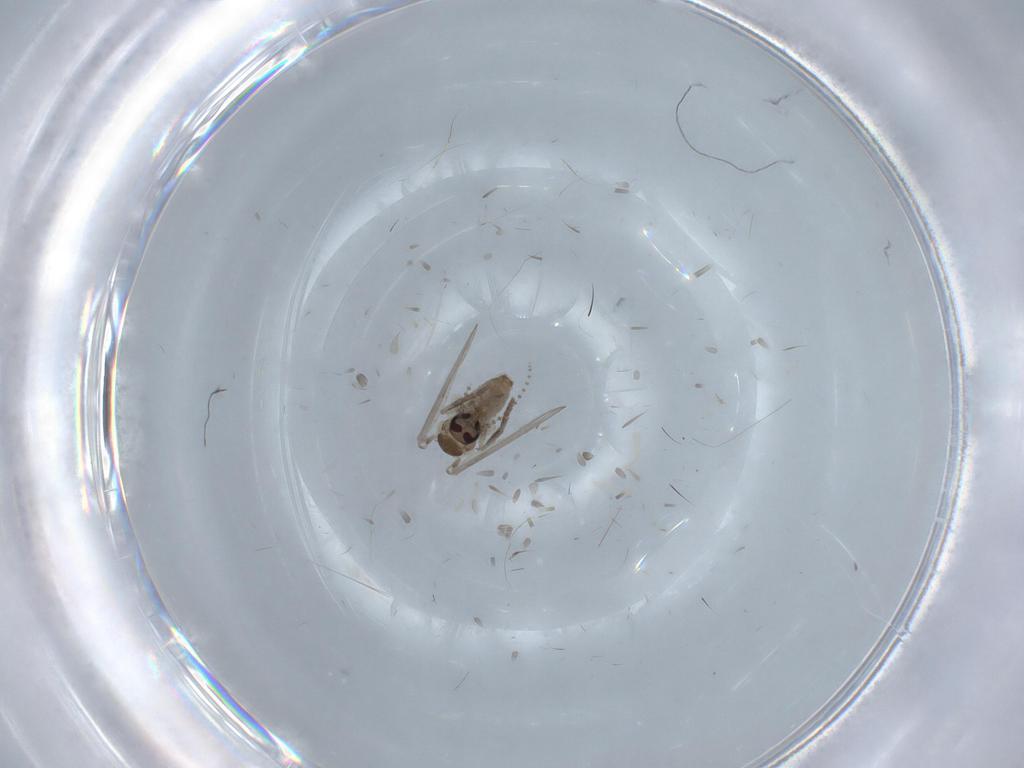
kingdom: Animalia
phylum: Arthropoda
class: Insecta
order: Diptera
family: Psychodidae
